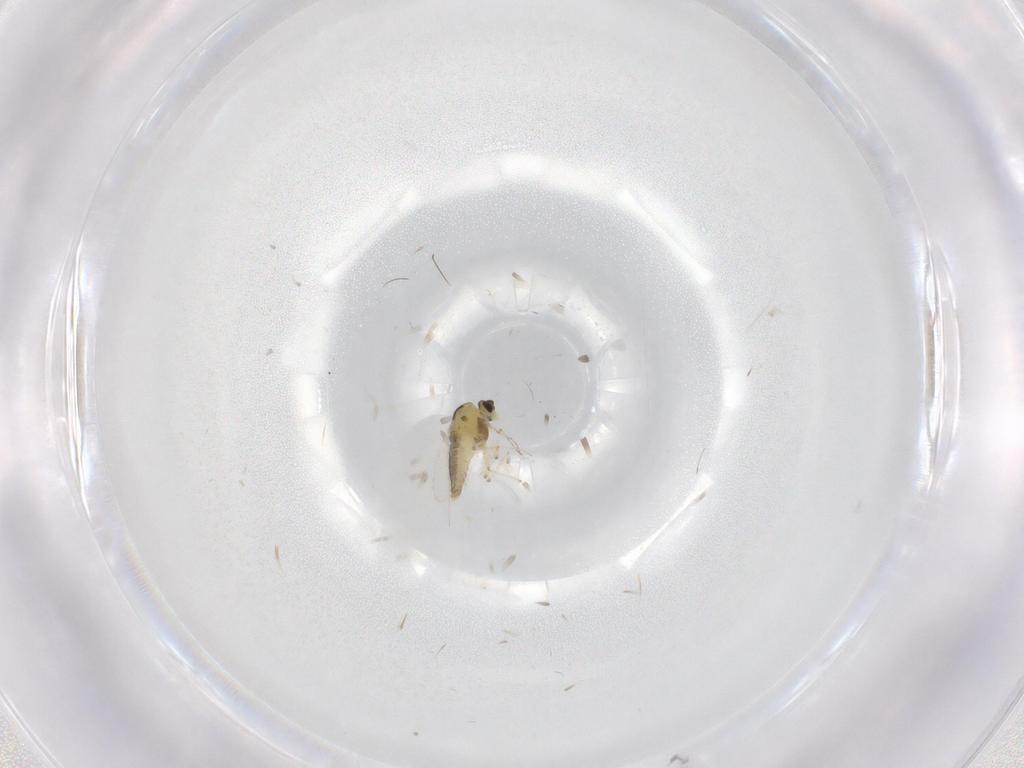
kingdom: Animalia
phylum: Arthropoda
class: Insecta
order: Diptera
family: Chironomidae
